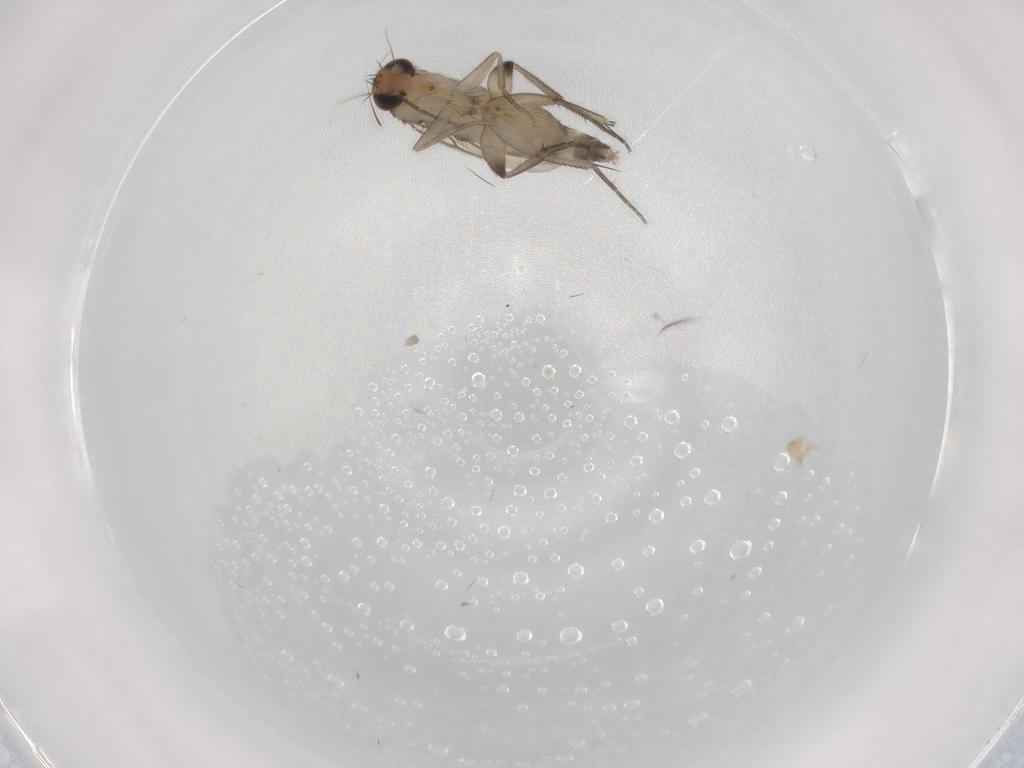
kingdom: Animalia
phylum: Arthropoda
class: Insecta
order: Diptera
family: Phoridae
